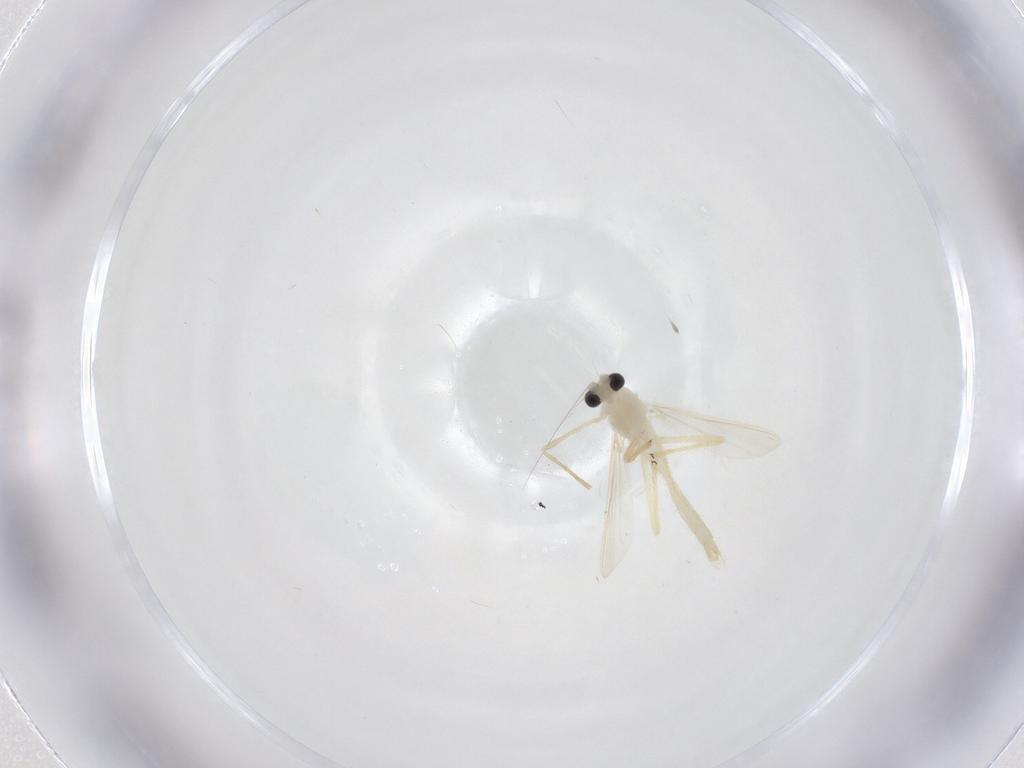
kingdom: Animalia
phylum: Arthropoda
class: Insecta
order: Diptera
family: Chironomidae
